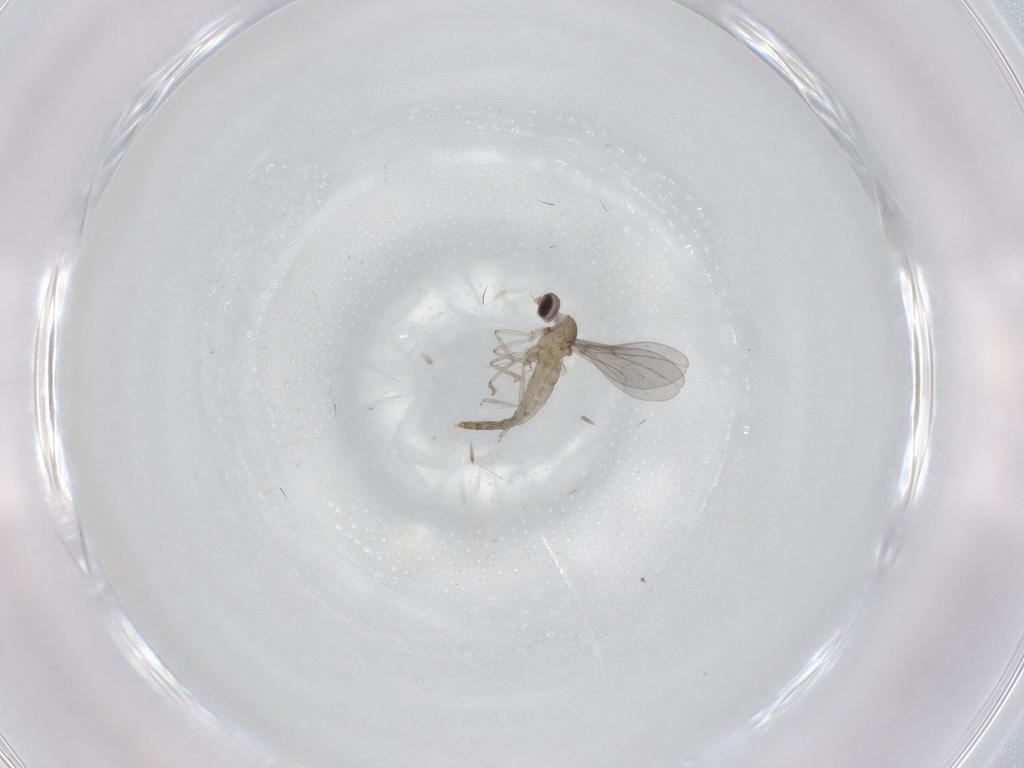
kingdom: Animalia
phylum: Arthropoda
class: Insecta
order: Diptera
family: Cecidomyiidae
